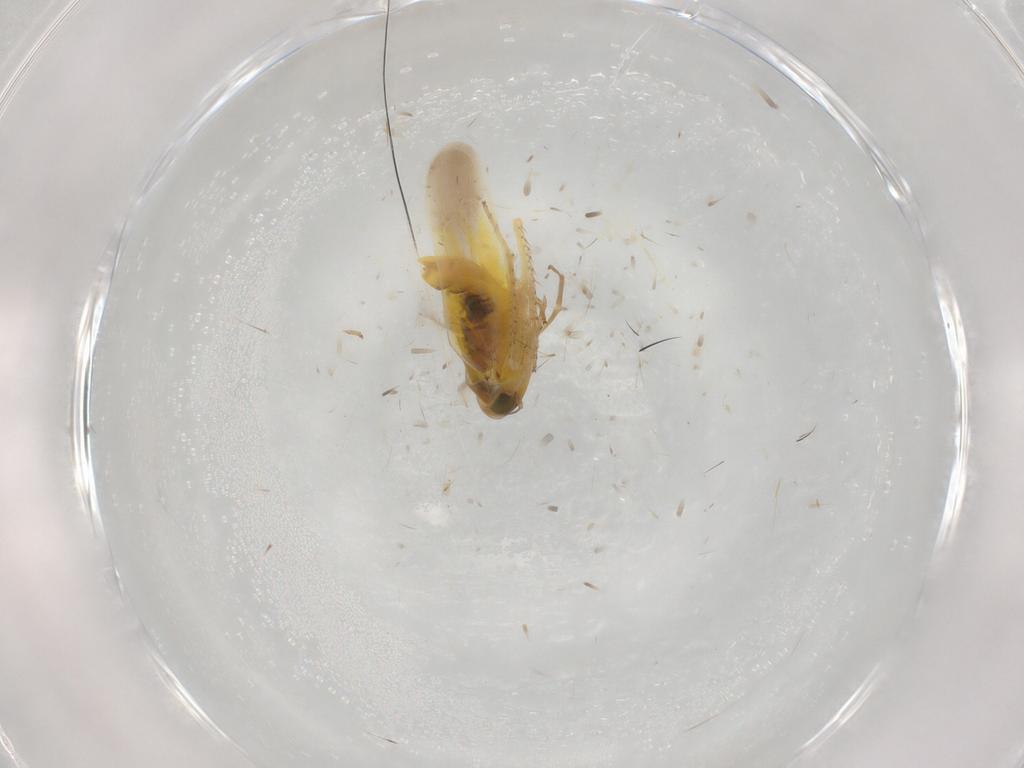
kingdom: Animalia
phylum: Arthropoda
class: Insecta
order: Hemiptera
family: Cicadellidae
